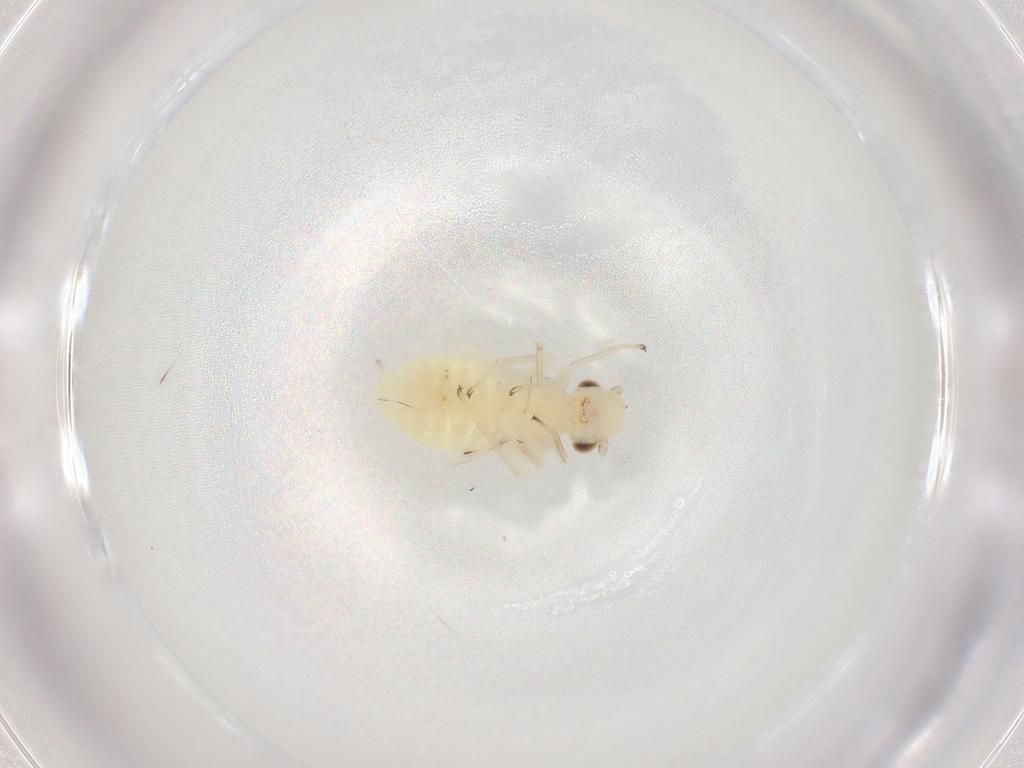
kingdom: Animalia
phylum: Arthropoda
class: Insecta
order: Psocodea
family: Caeciliusidae
